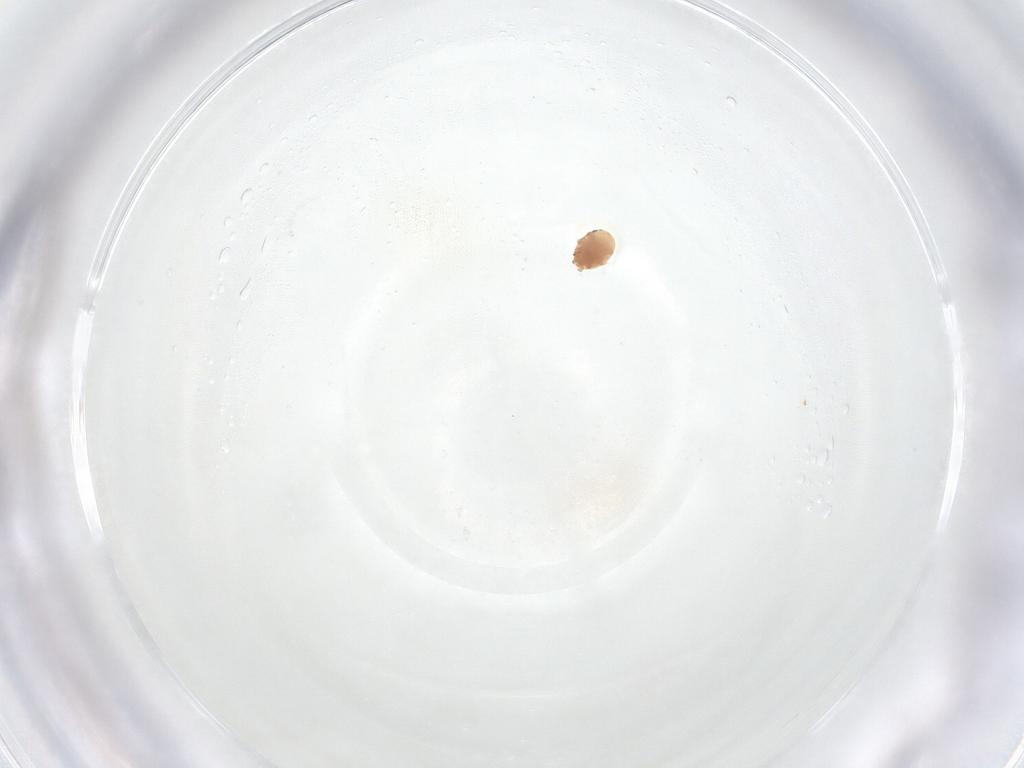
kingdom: Animalia
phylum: Arthropoda
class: Insecta
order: Diptera
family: Chloropidae
